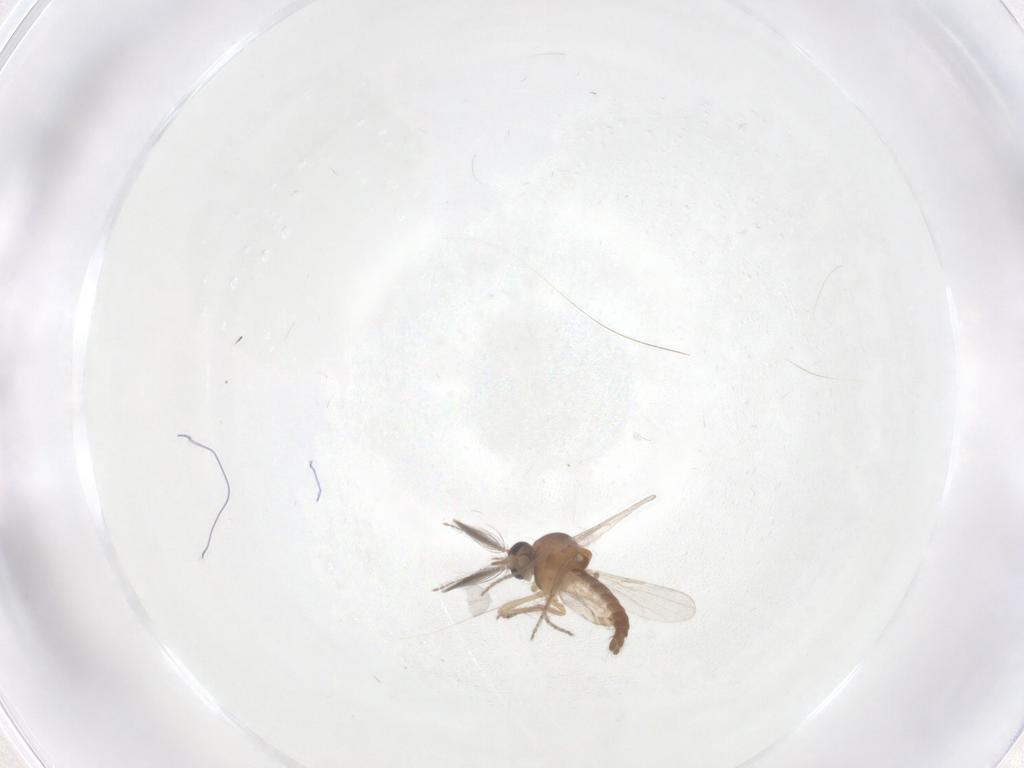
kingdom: Animalia
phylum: Arthropoda
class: Insecta
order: Diptera
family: Ceratopogonidae
